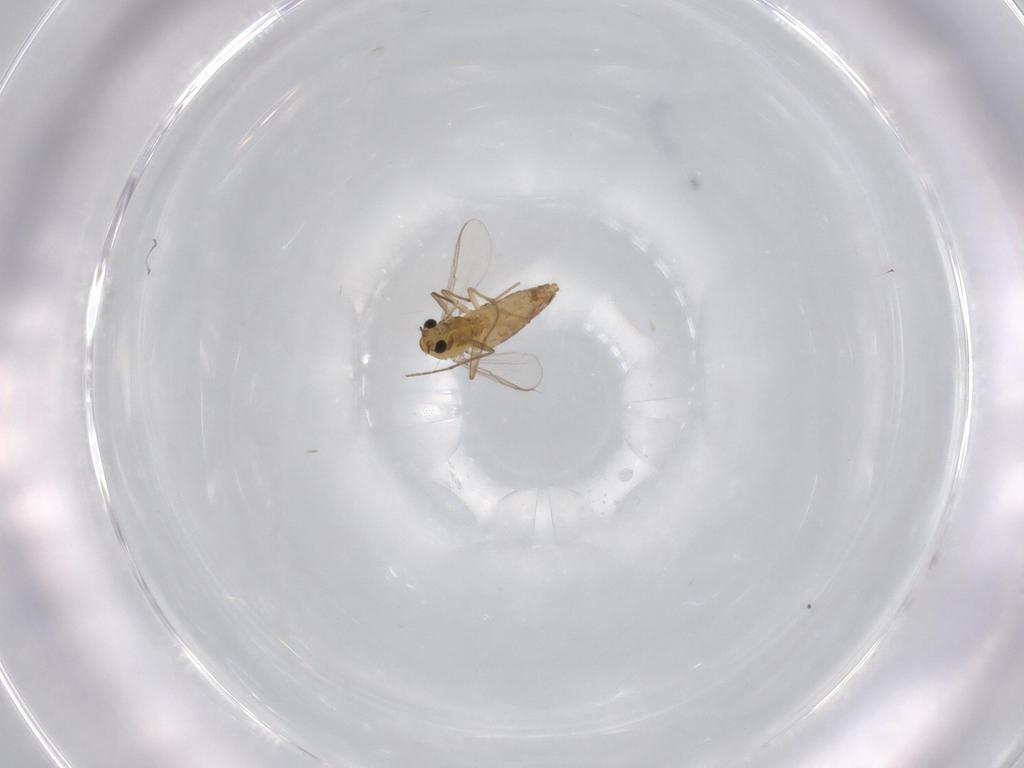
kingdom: Animalia
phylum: Arthropoda
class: Insecta
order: Diptera
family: Chironomidae
